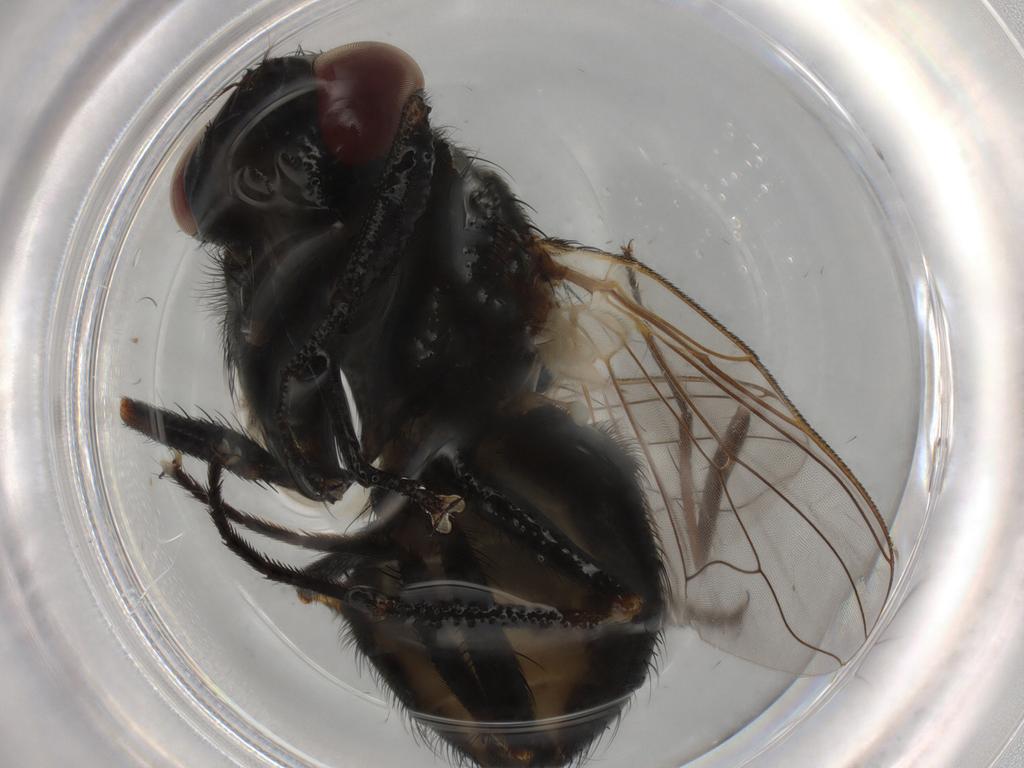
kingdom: Animalia
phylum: Arthropoda
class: Insecta
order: Diptera
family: Muscidae
